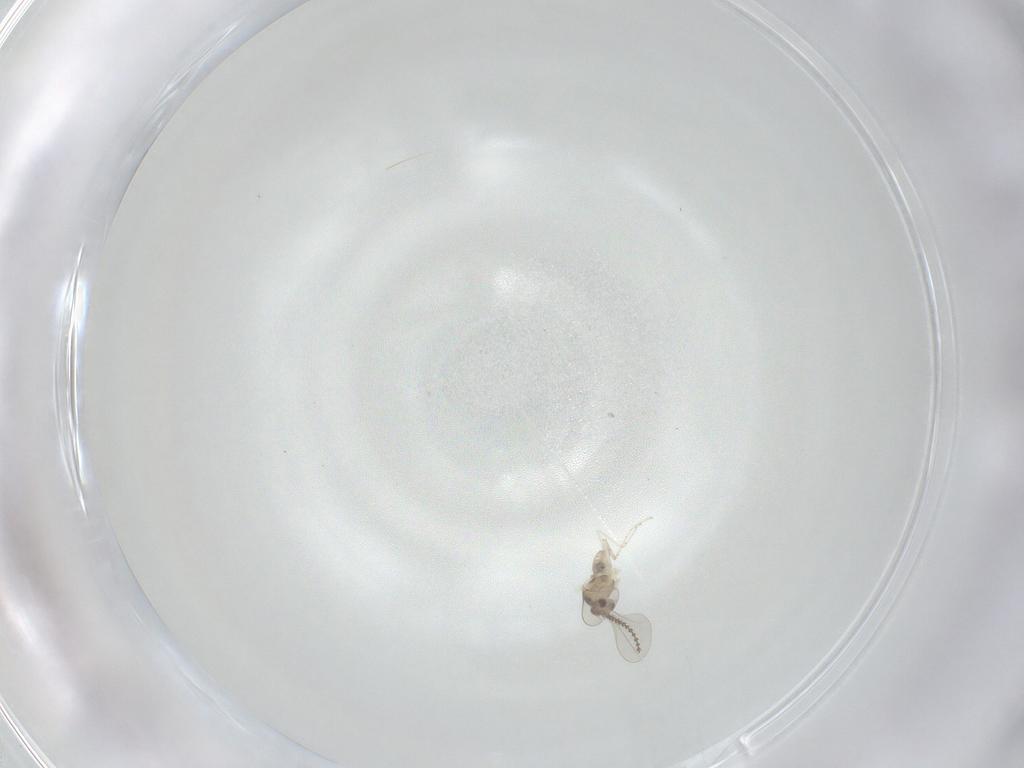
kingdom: Animalia
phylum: Arthropoda
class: Insecta
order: Diptera
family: Cecidomyiidae
